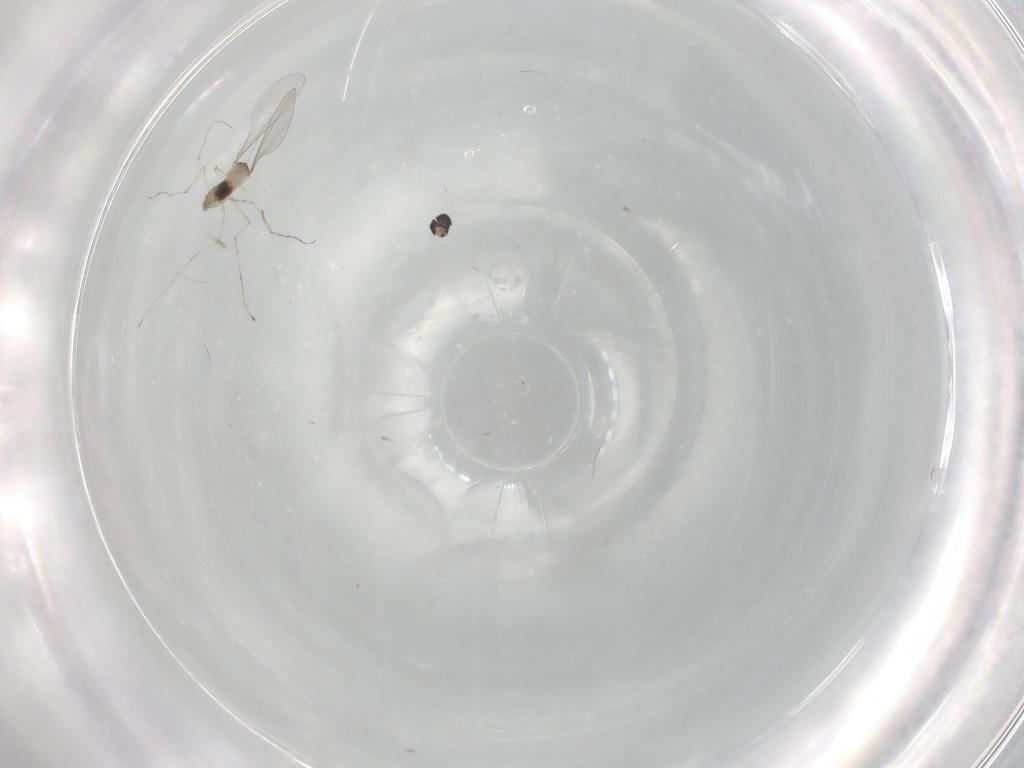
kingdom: Animalia
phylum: Arthropoda
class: Insecta
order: Diptera
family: Cecidomyiidae
